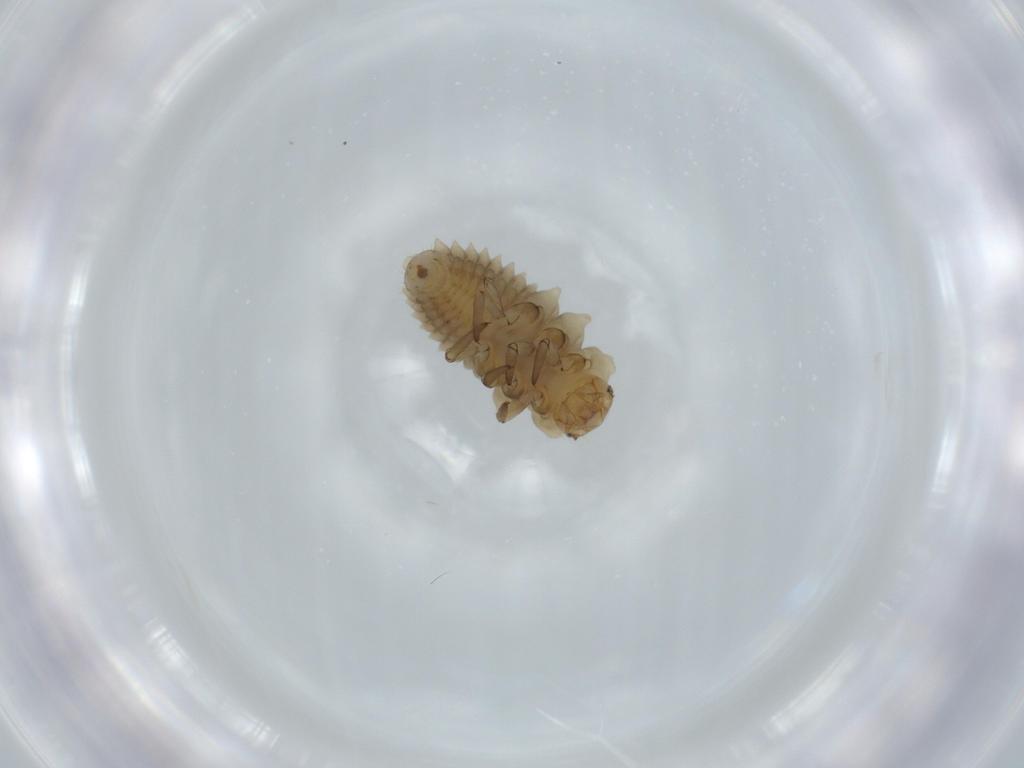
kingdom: Animalia
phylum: Arthropoda
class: Insecta
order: Coleoptera
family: Coccinellidae
